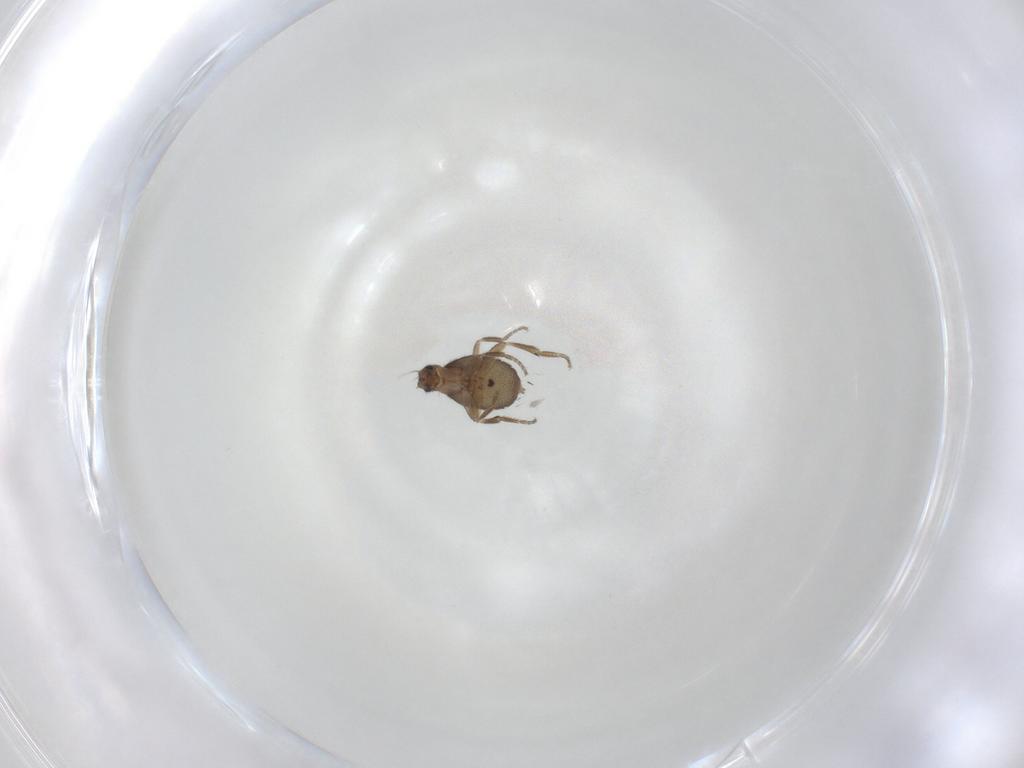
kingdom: Animalia
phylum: Arthropoda
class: Insecta
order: Diptera
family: Phoridae
